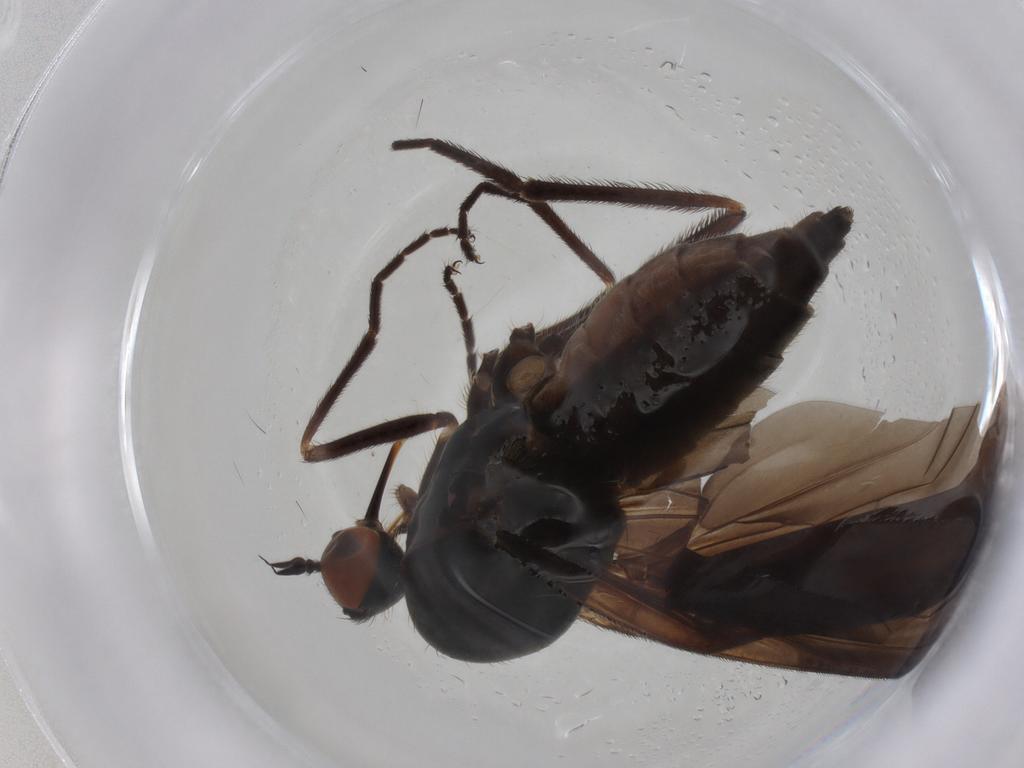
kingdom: Animalia
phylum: Arthropoda
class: Insecta
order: Diptera
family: Empididae
